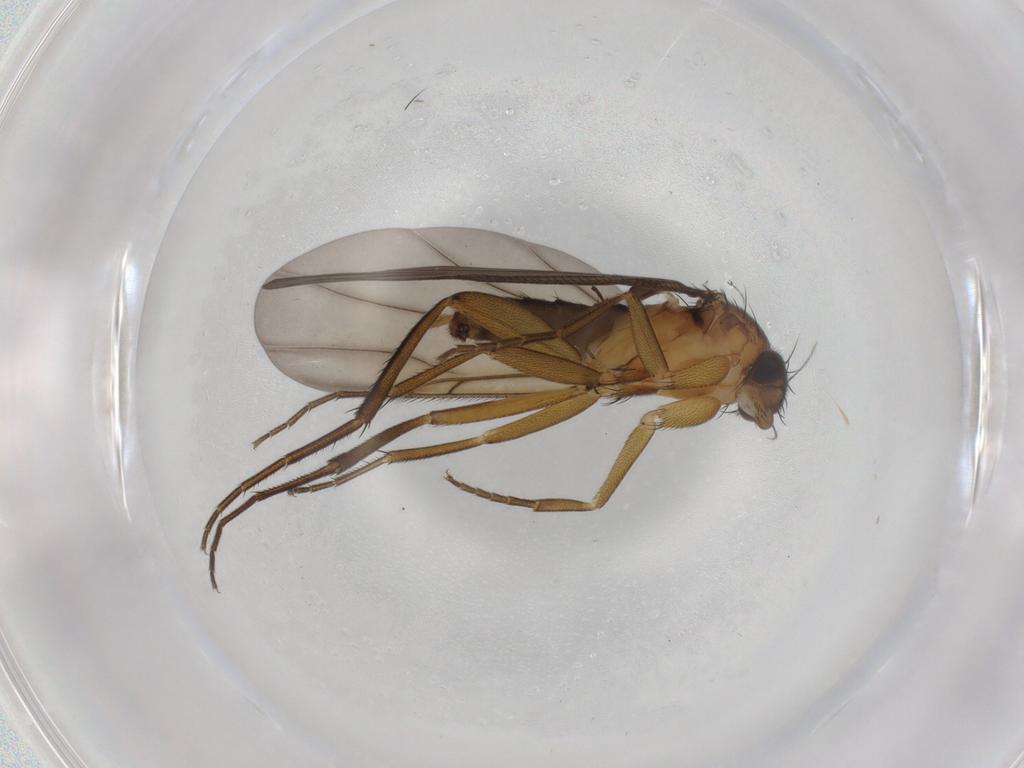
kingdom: Animalia
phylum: Arthropoda
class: Insecta
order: Diptera
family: Phoridae
